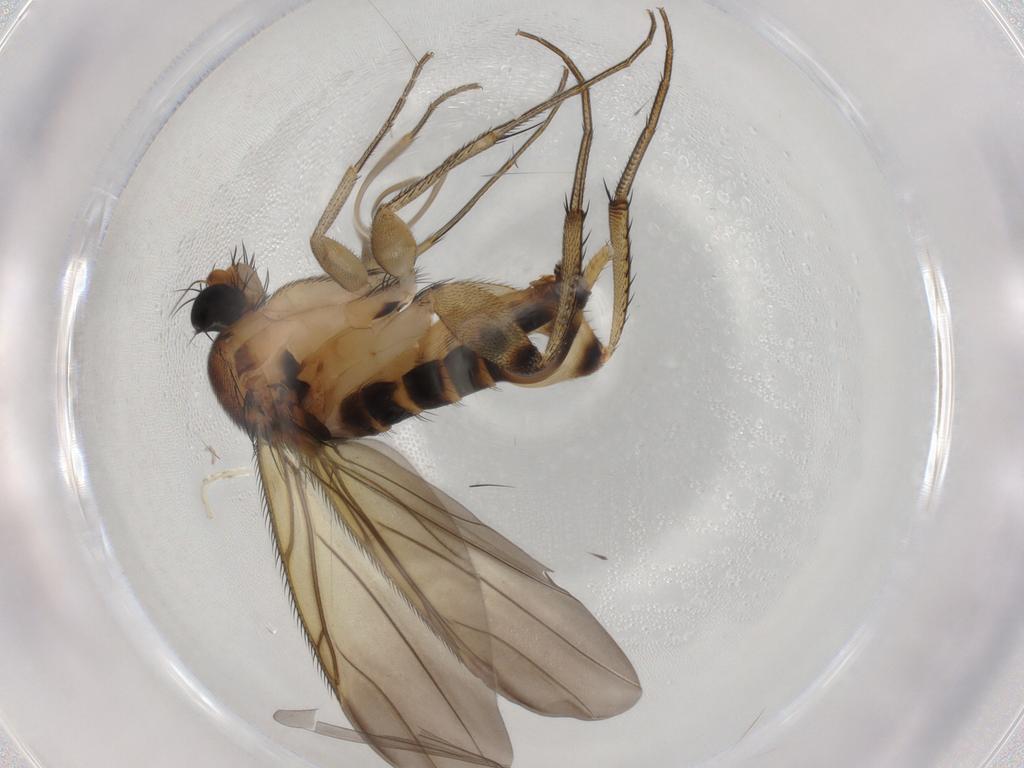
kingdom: Animalia
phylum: Arthropoda
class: Insecta
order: Diptera
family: Phoridae
